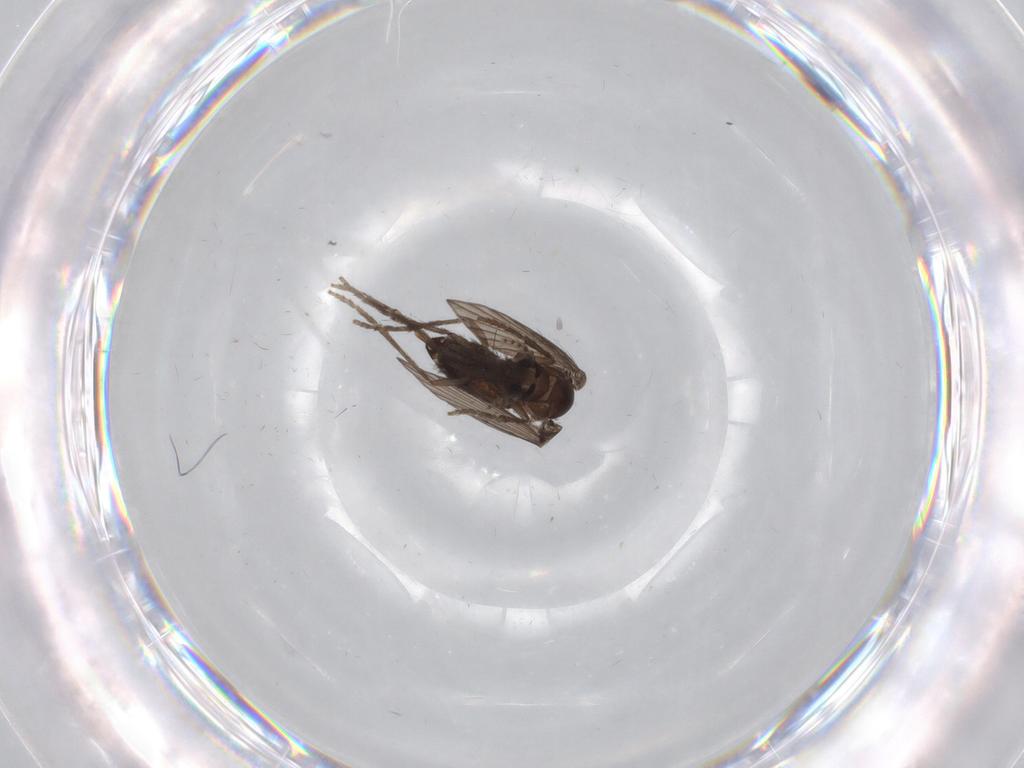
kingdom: Animalia
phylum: Arthropoda
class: Insecta
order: Diptera
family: Psychodidae
